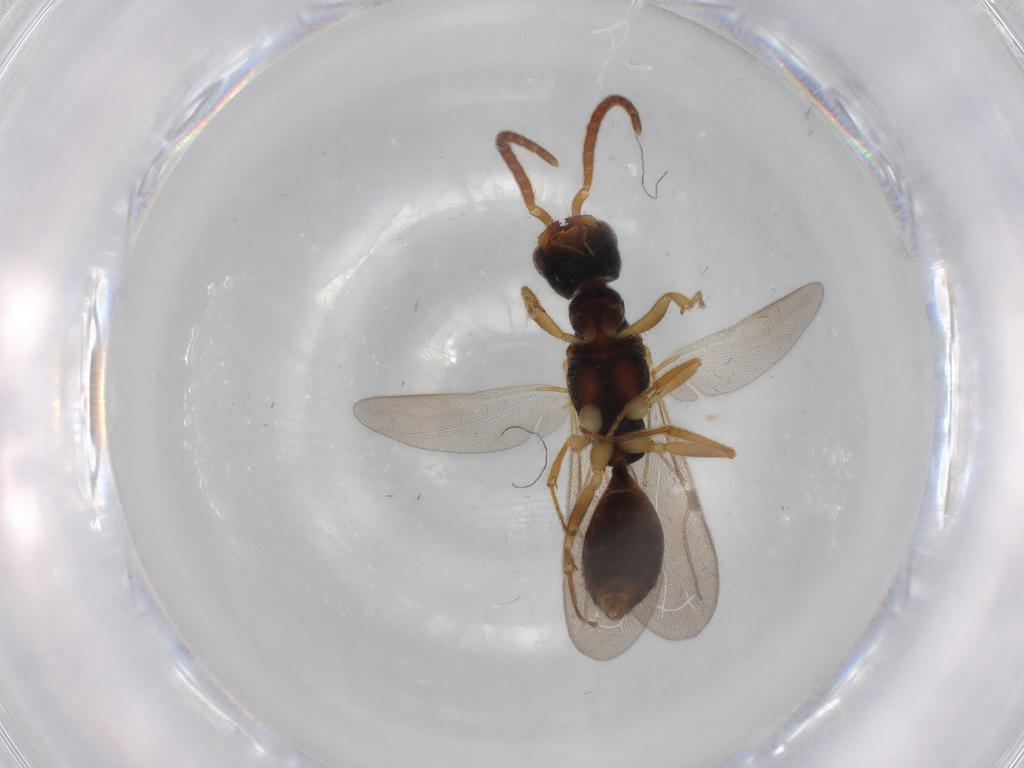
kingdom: Animalia
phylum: Arthropoda
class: Insecta
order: Hymenoptera
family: Bethylidae
